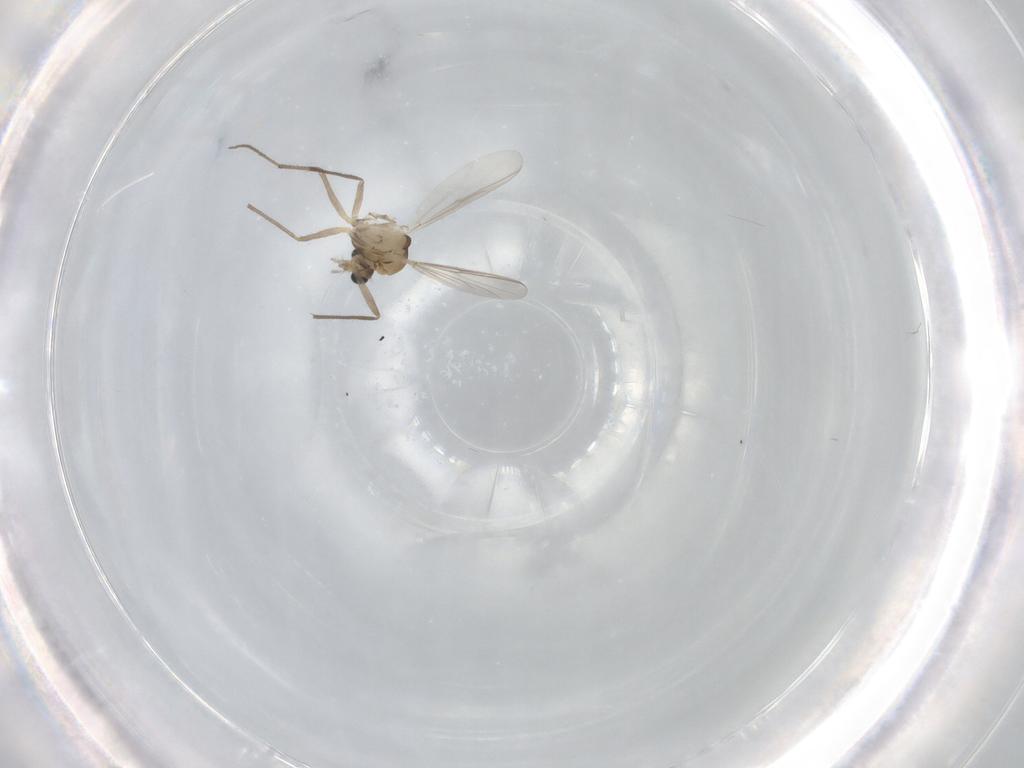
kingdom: Animalia
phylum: Arthropoda
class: Insecta
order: Diptera
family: Chironomidae
